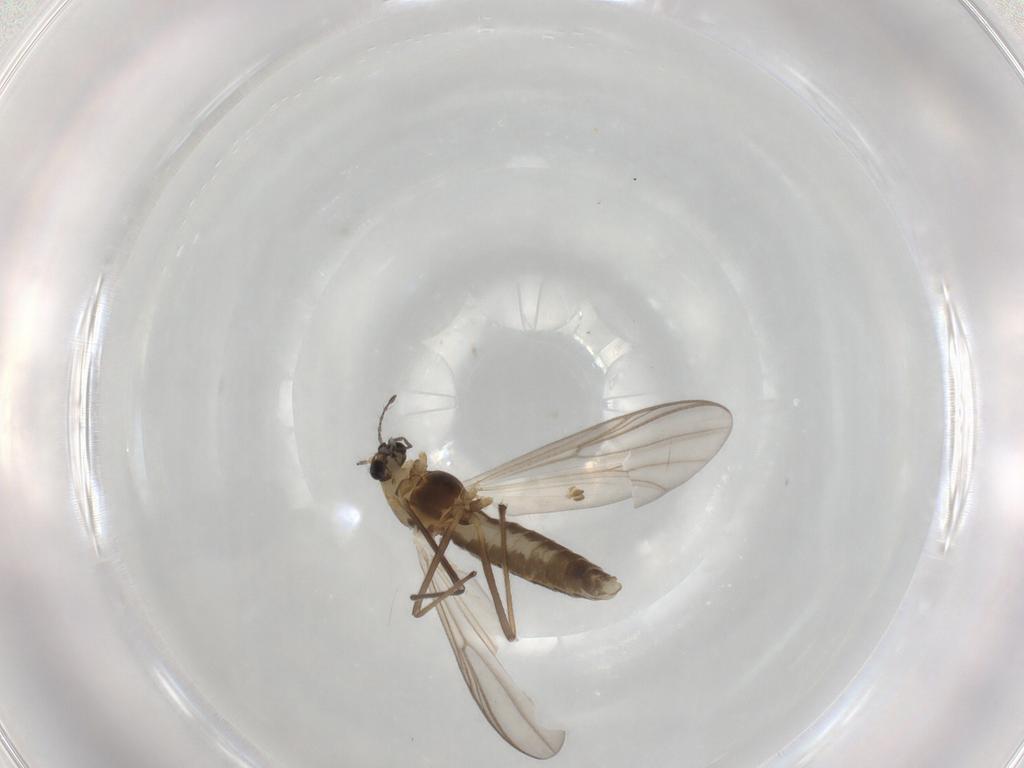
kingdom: Animalia
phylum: Arthropoda
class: Insecta
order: Diptera
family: Chironomidae
